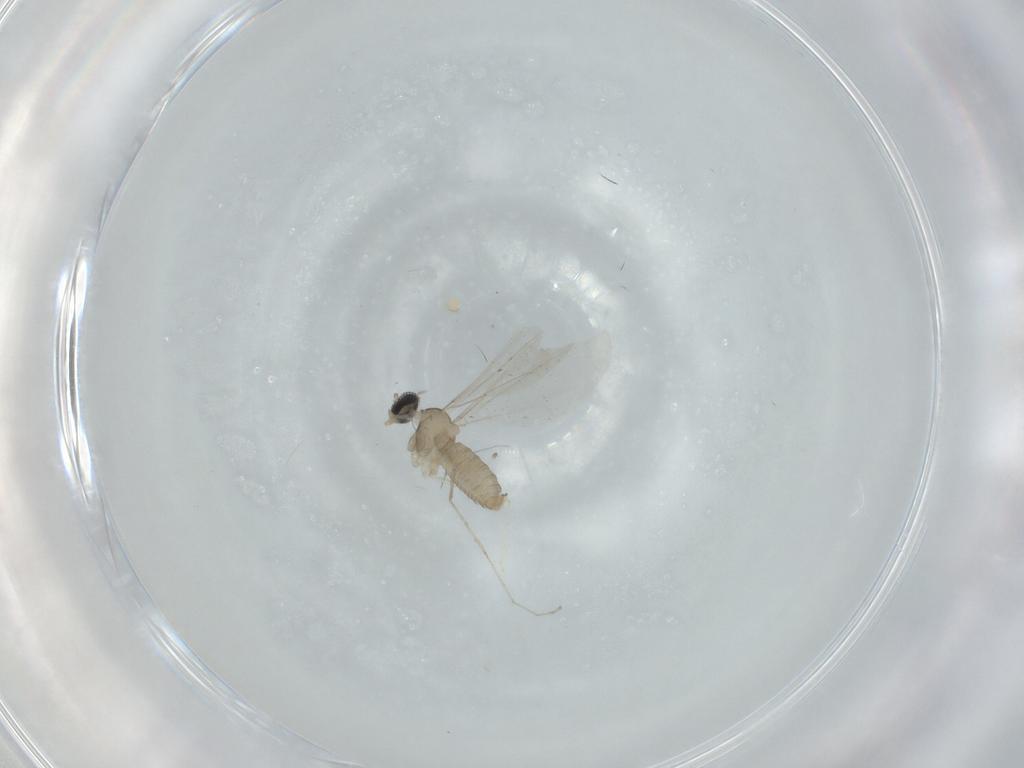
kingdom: Animalia
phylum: Arthropoda
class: Insecta
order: Diptera
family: Cecidomyiidae
